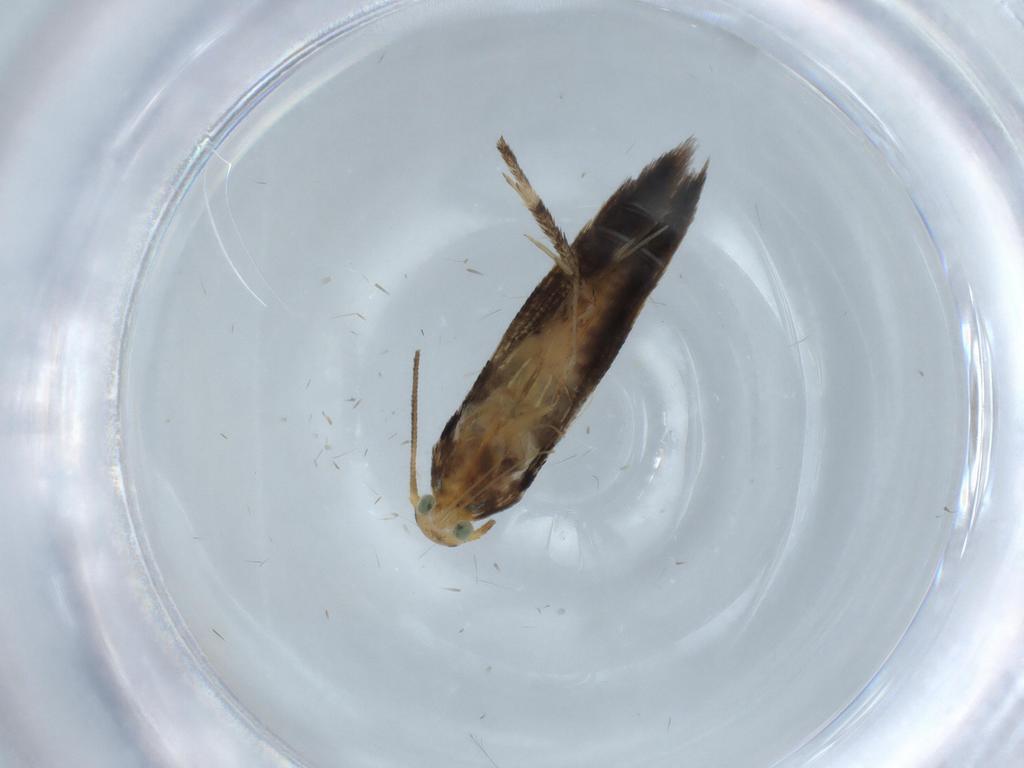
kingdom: Animalia
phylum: Arthropoda
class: Insecta
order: Lepidoptera
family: Heliodinidae
